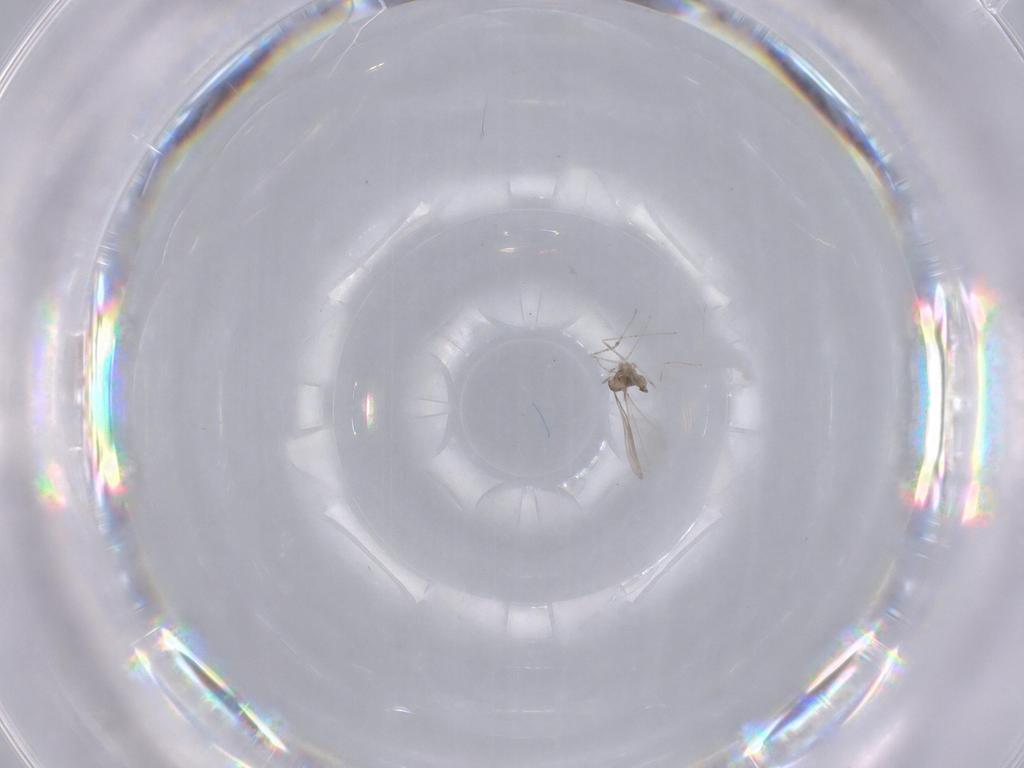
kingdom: Animalia
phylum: Arthropoda
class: Insecta
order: Diptera
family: Cecidomyiidae
